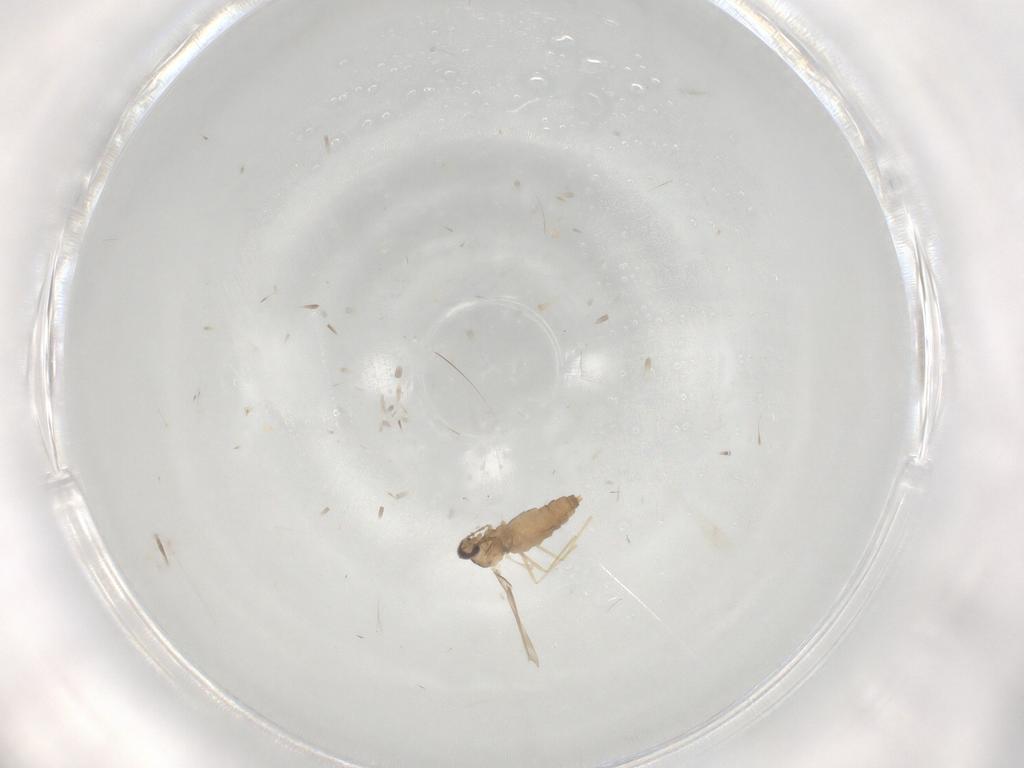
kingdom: Animalia
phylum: Arthropoda
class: Insecta
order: Diptera
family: Cecidomyiidae
